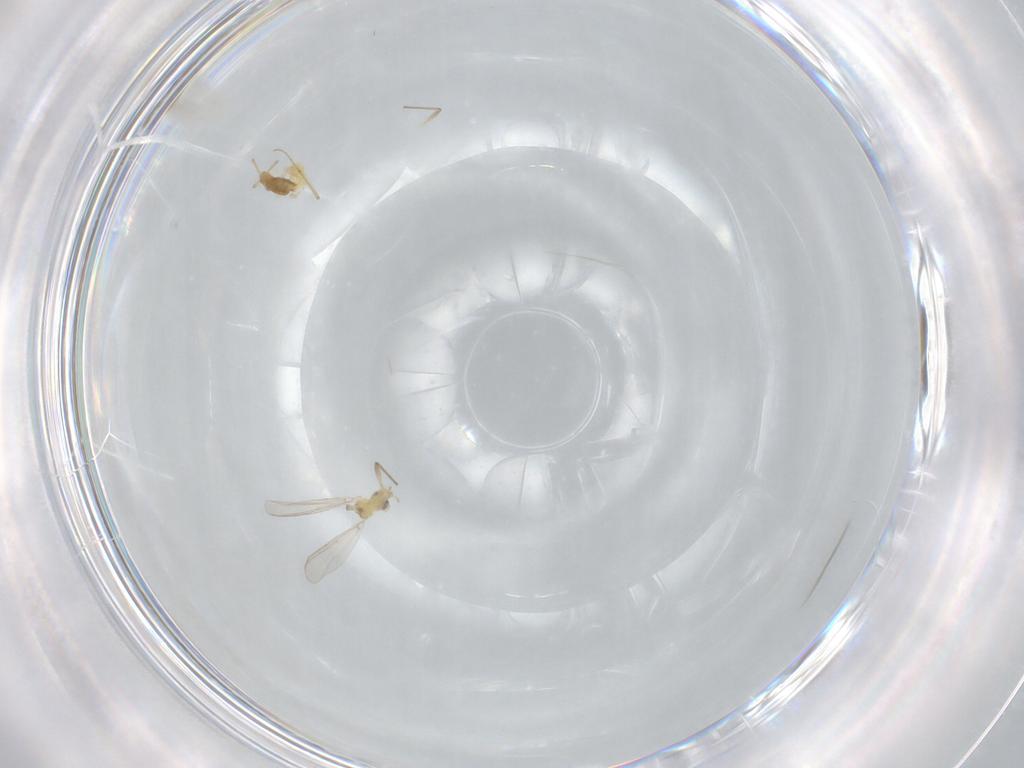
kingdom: Animalia
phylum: Arthropoda
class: Insecta
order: Diptera
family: Chironomidae
